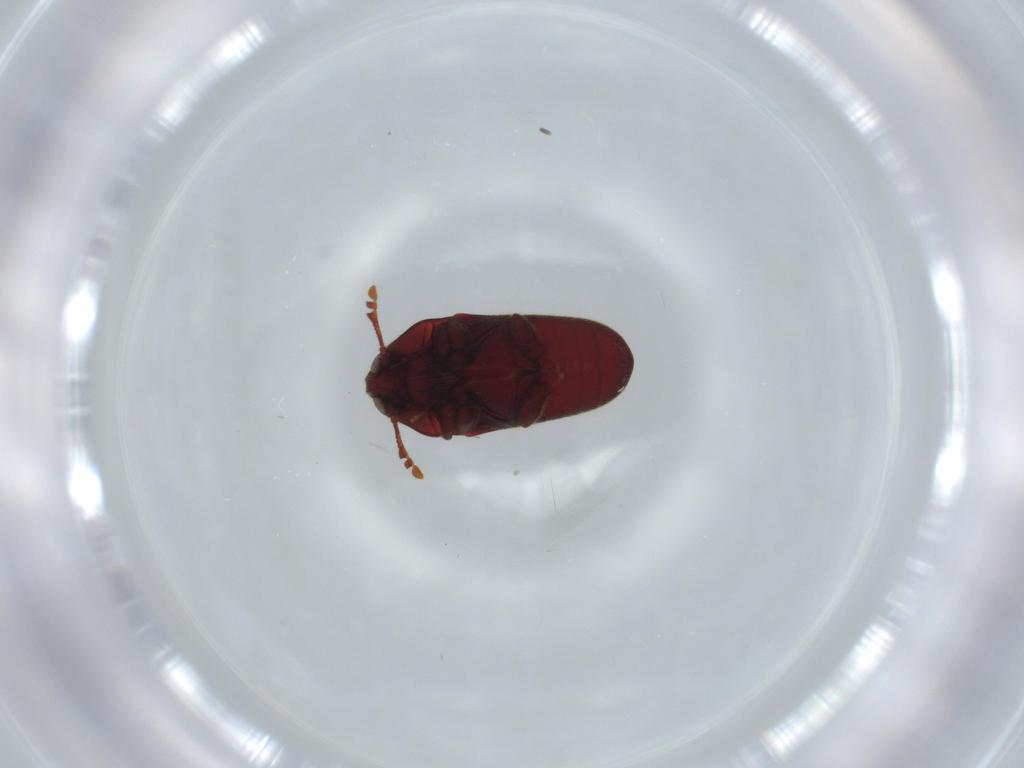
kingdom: Animalia
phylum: Arthropoda
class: Insecta
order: Coleoptera
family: Throscidae
